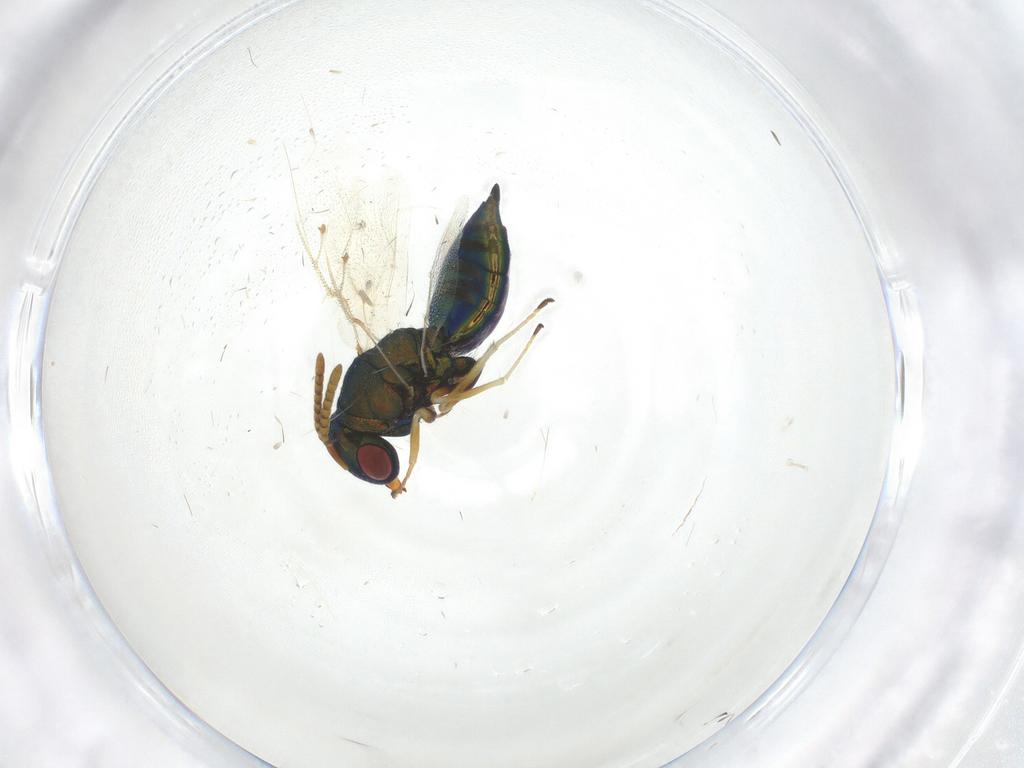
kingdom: Animalia
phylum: Arthropoda
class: Insecta
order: Hymenoptera
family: Pteromalidae
